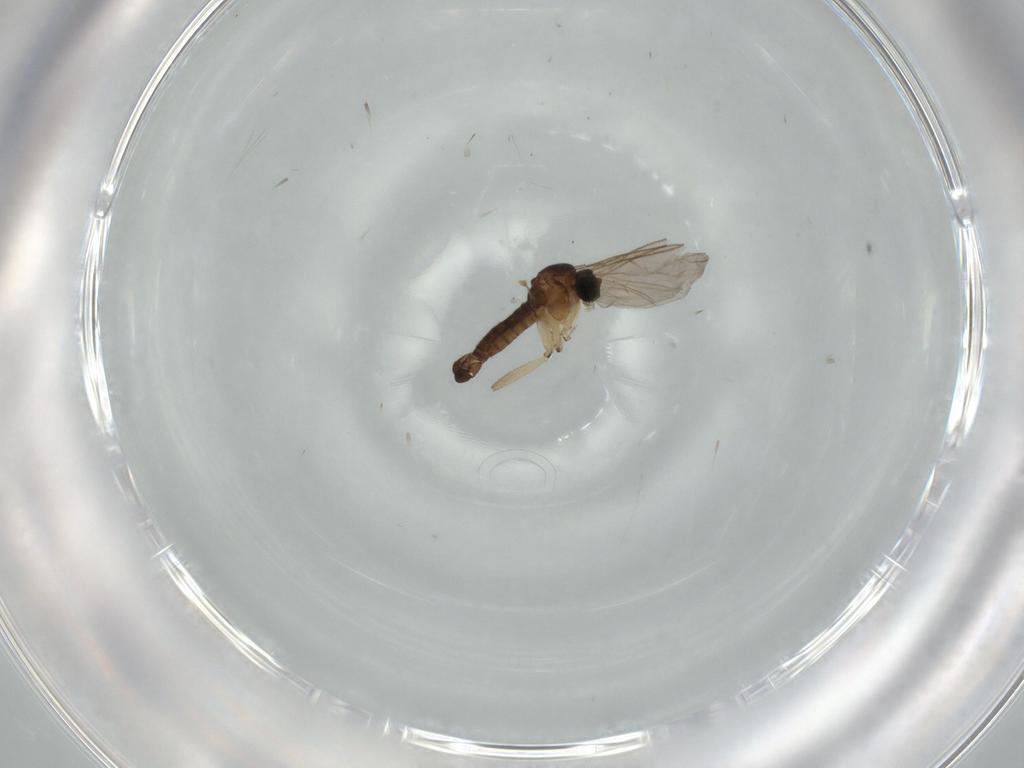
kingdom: Animalia
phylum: Arthropoda
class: Insecta
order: Diptera
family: Sciaridae
